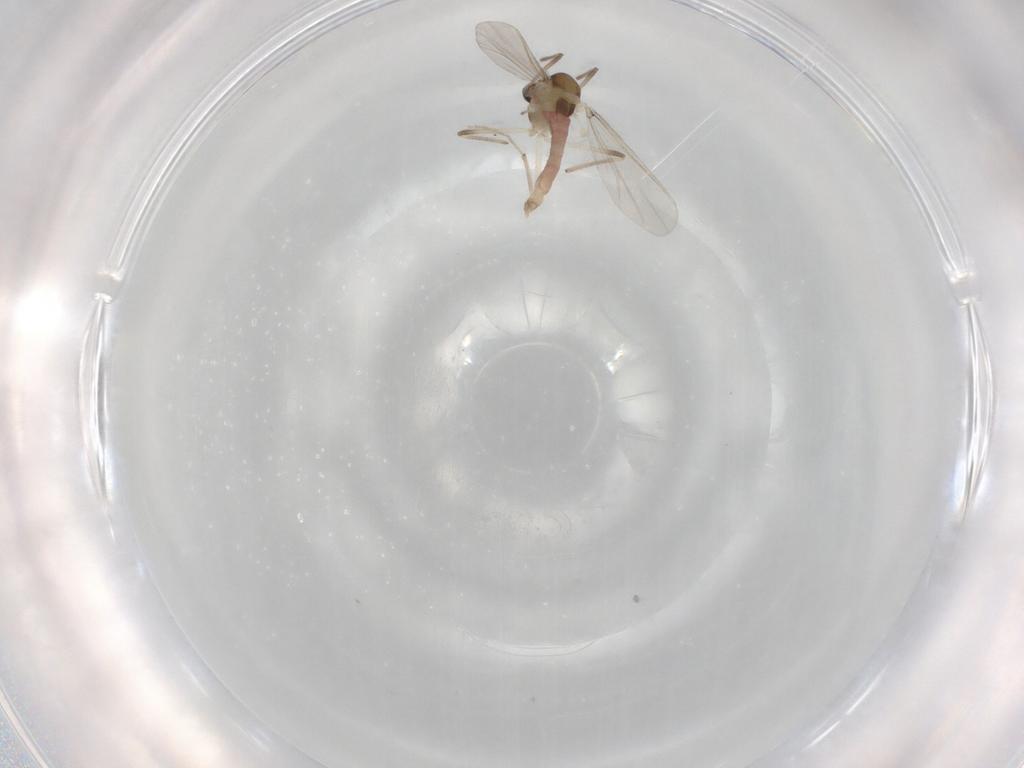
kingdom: Animalia
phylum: Arthropoda
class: Insecta
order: Diptera
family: Chironomidae
